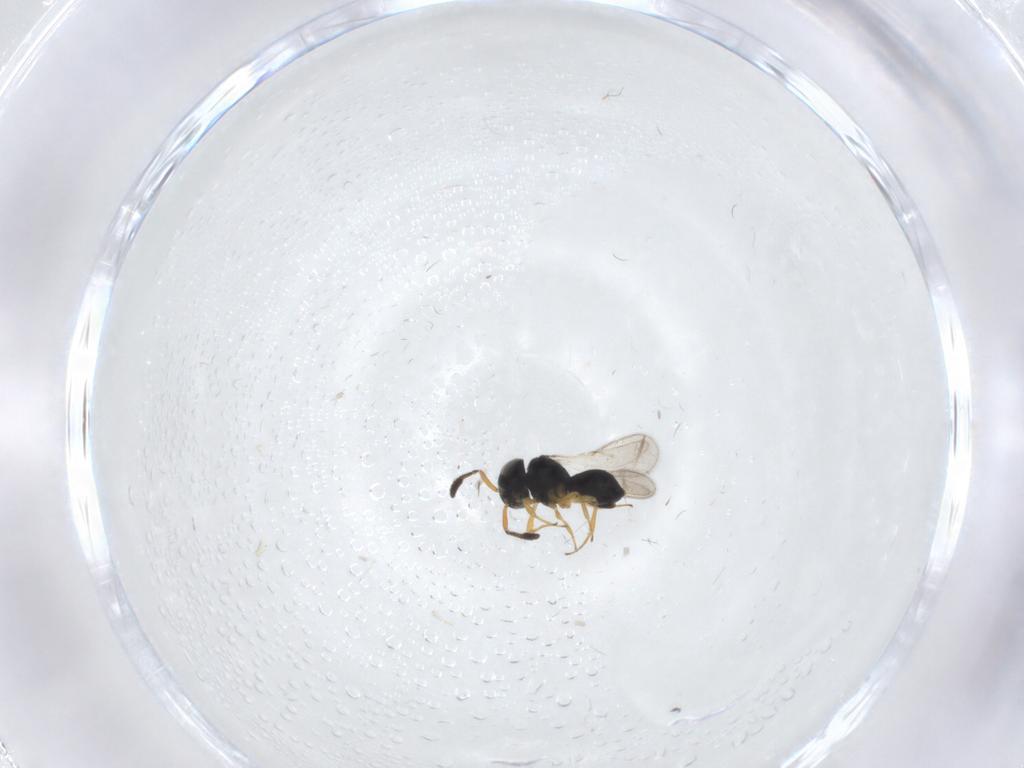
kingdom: Animalia
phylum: Arthropoda
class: Insecta
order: Hymenoptera
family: Scelionidae
